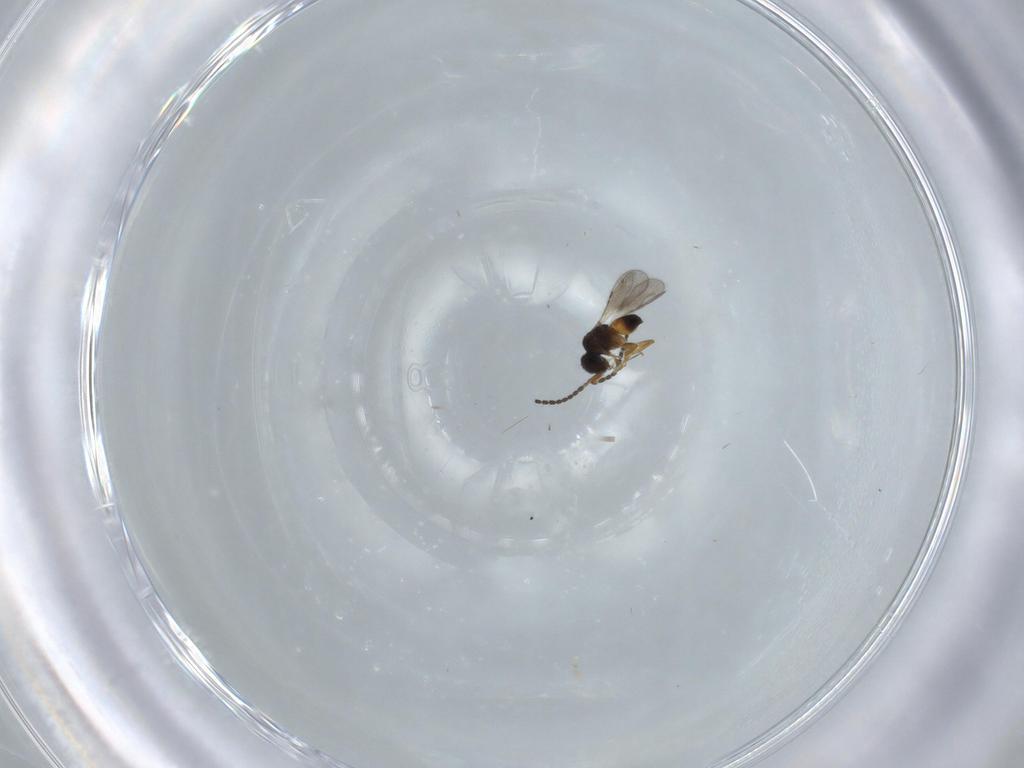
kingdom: Animalia
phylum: Arthropoda
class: Insecta
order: Hymenoptera
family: Ceraphronidae
